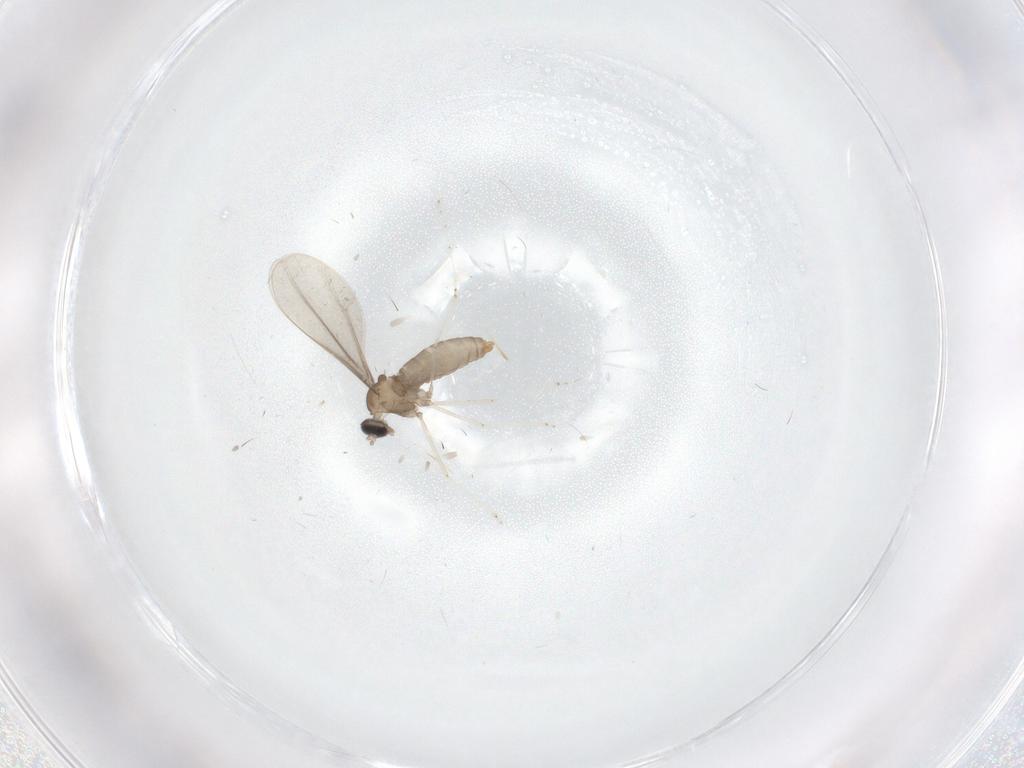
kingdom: Animalia
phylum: Arthropoda
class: Insecta
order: Diptera
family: Cecidomyiidae
